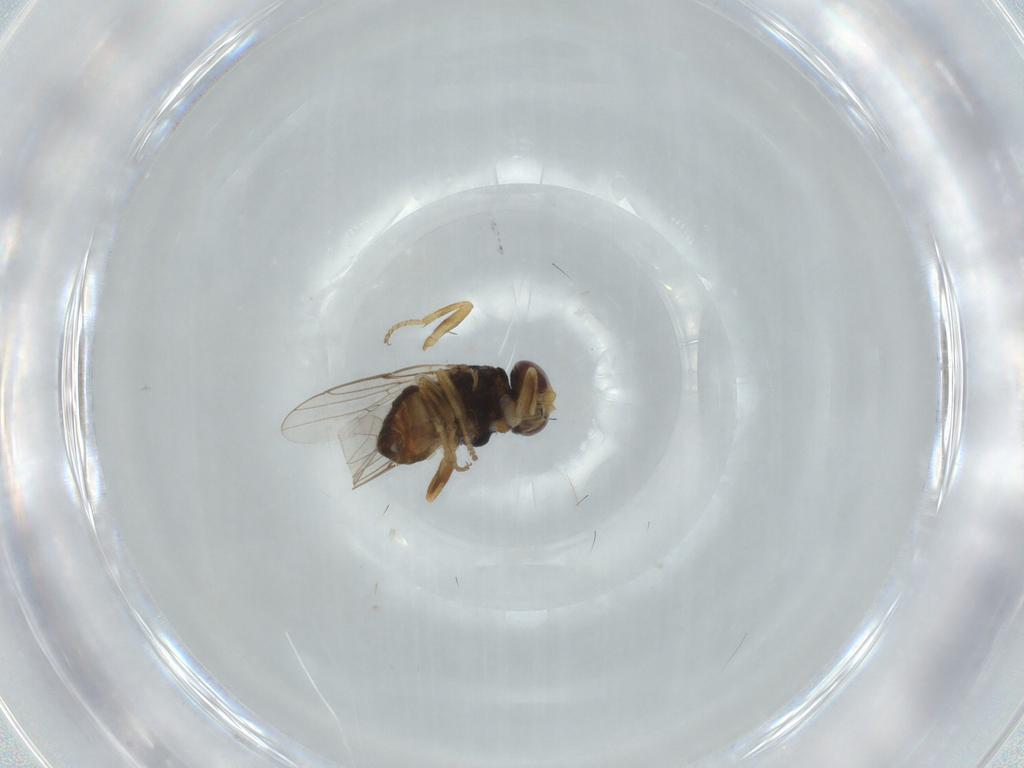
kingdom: Animalia
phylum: Arthropoda
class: Insecta
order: Diptera
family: Chloropidae
